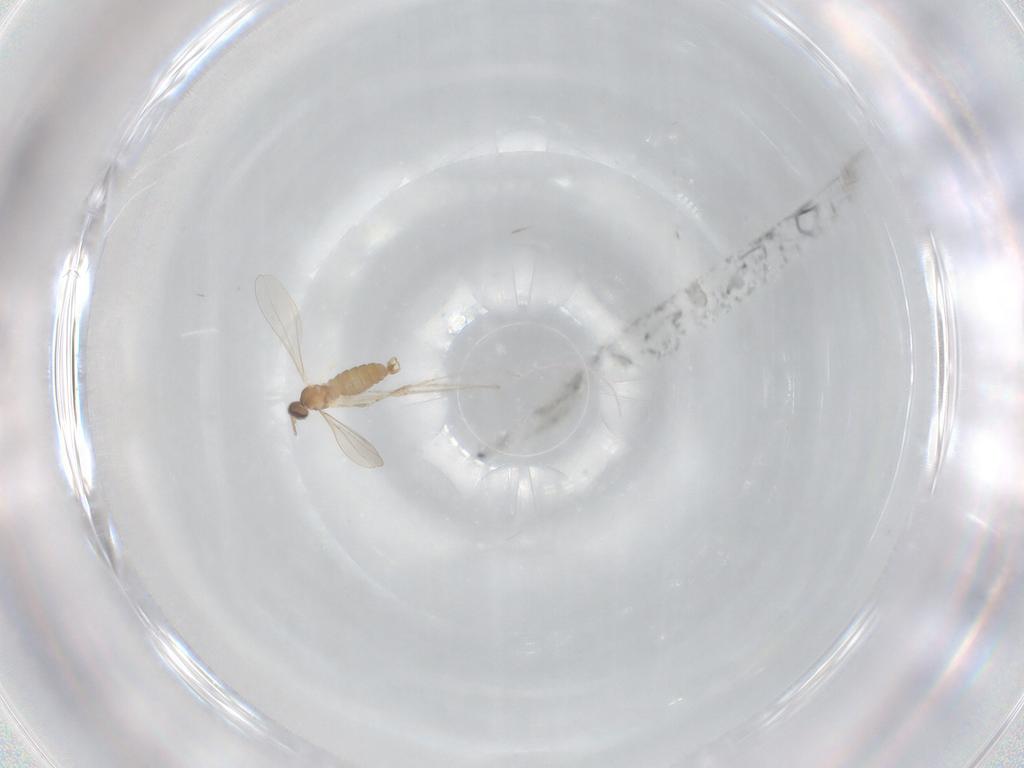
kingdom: Animalia
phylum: Arthropoda
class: Insecta
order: Diptera
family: Cecidomyiidae
